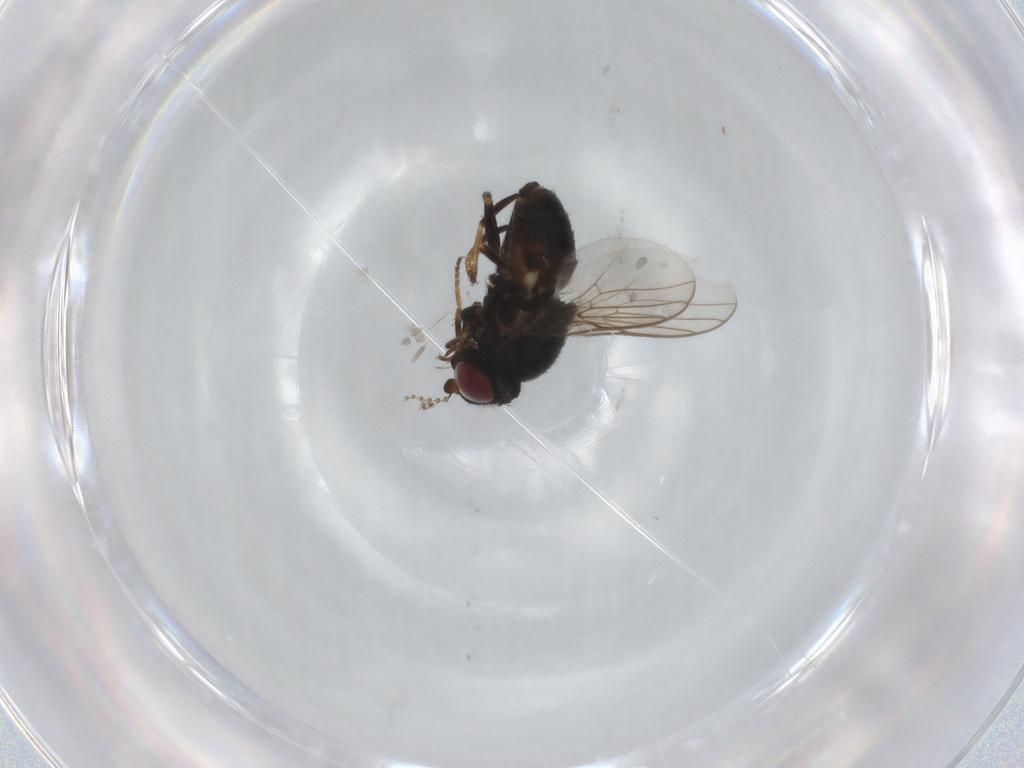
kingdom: Animalia
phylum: Arthropoda
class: Insecta
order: Diptera
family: Chloropidae
